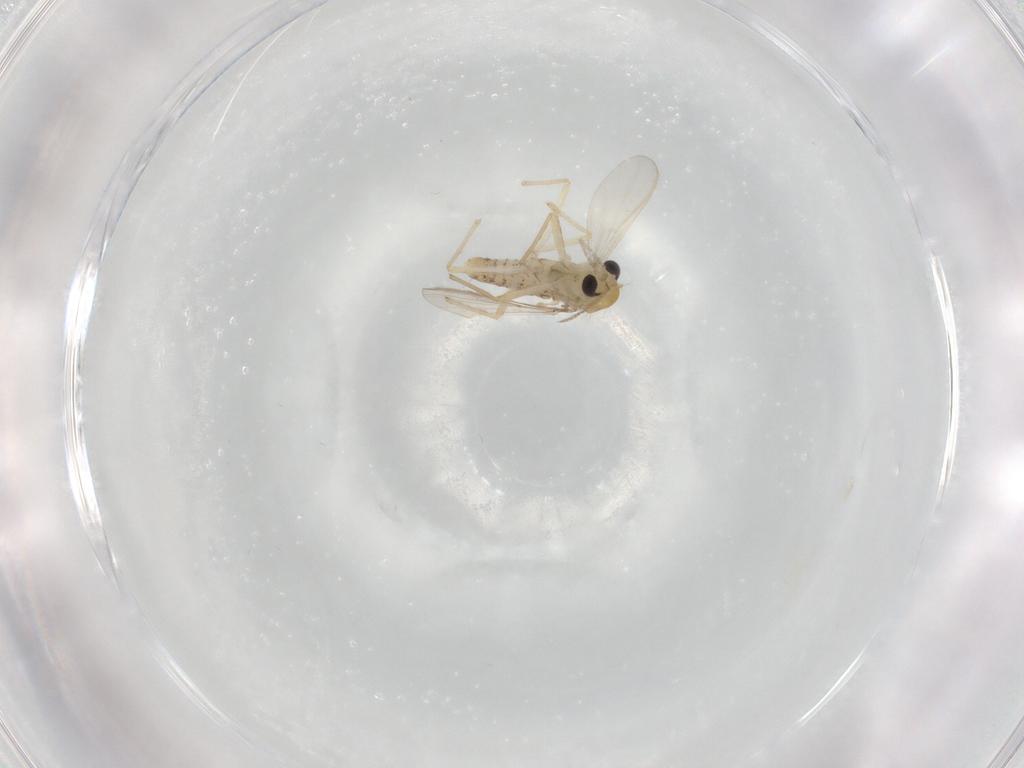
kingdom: Animalia
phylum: Arthropoda
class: Insecta
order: Diptera
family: Chironomidae
